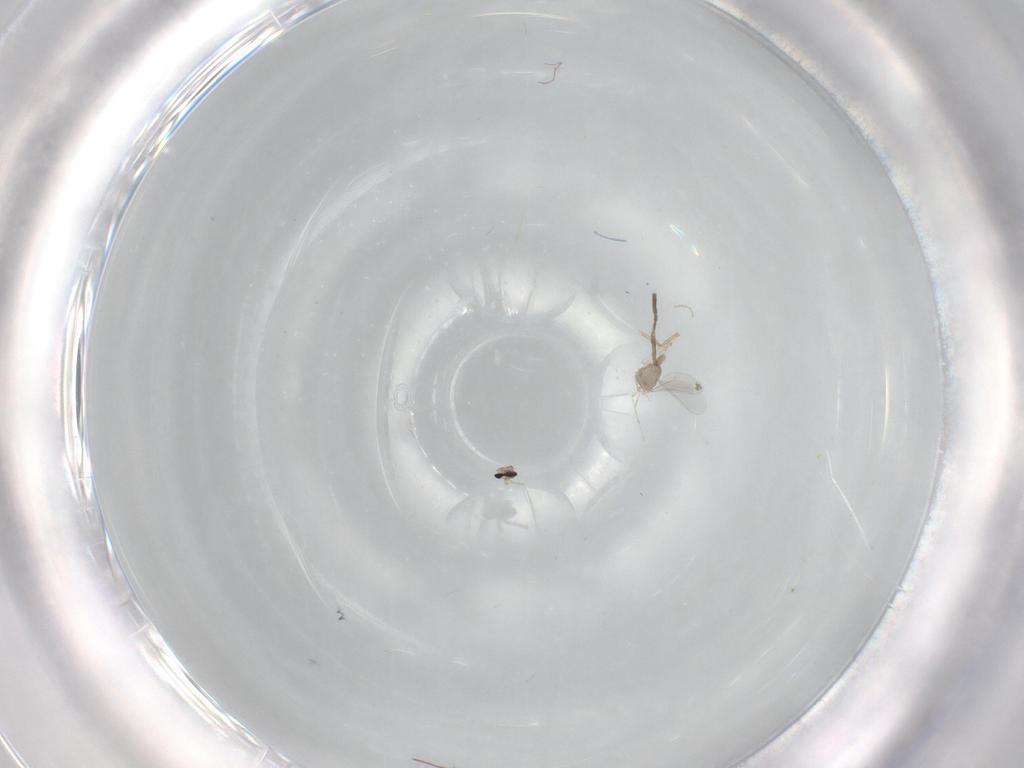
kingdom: Animalia
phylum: Arthropoda
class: Insecta
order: Diptera
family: Cecidomyiidae
